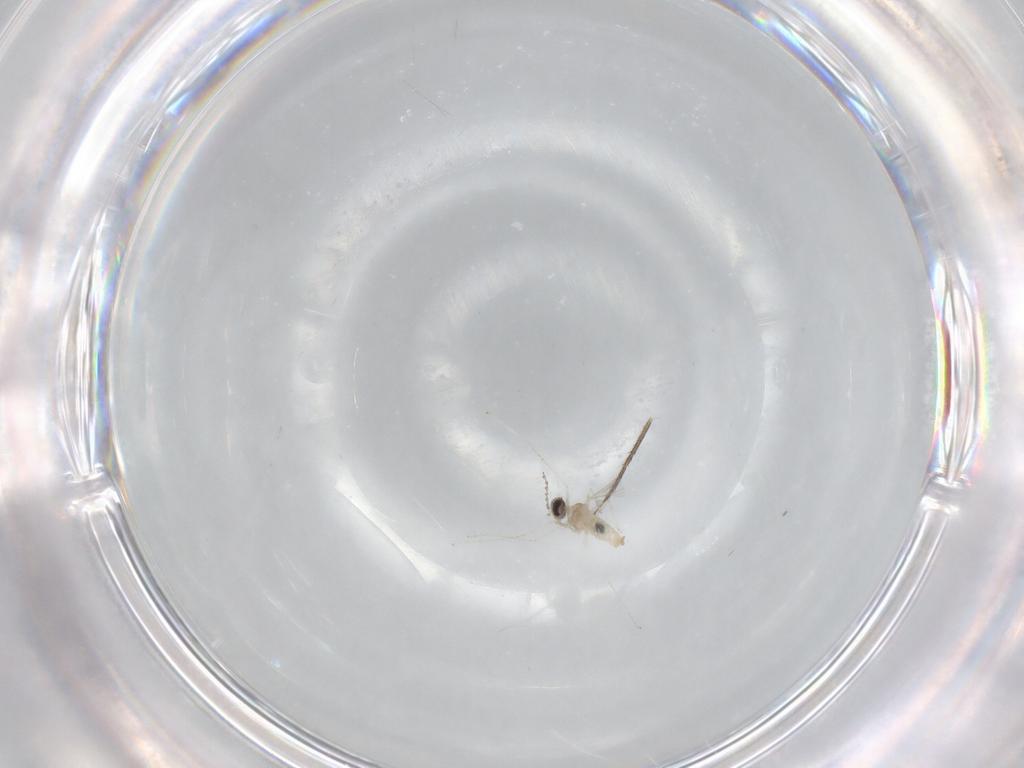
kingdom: Animalia
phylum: Arthropoda
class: Insecta
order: Diptera
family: Mycetophilidae
